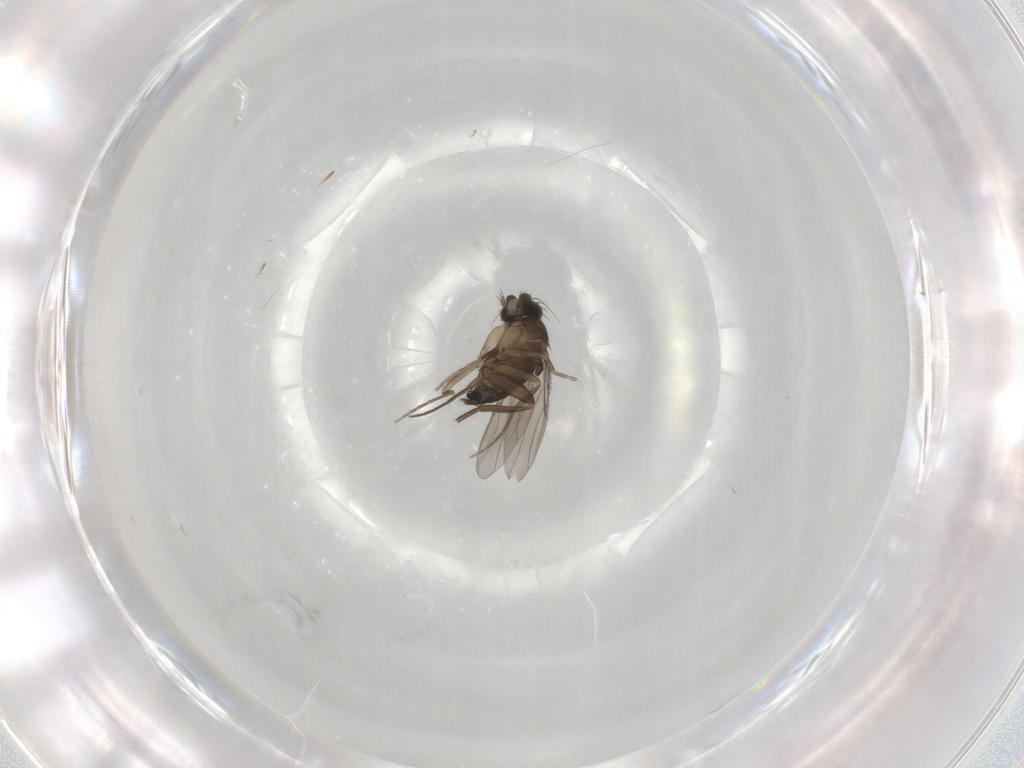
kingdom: Animalia
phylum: Arthropoda
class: Insecta
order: Diptera
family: Phoridae
